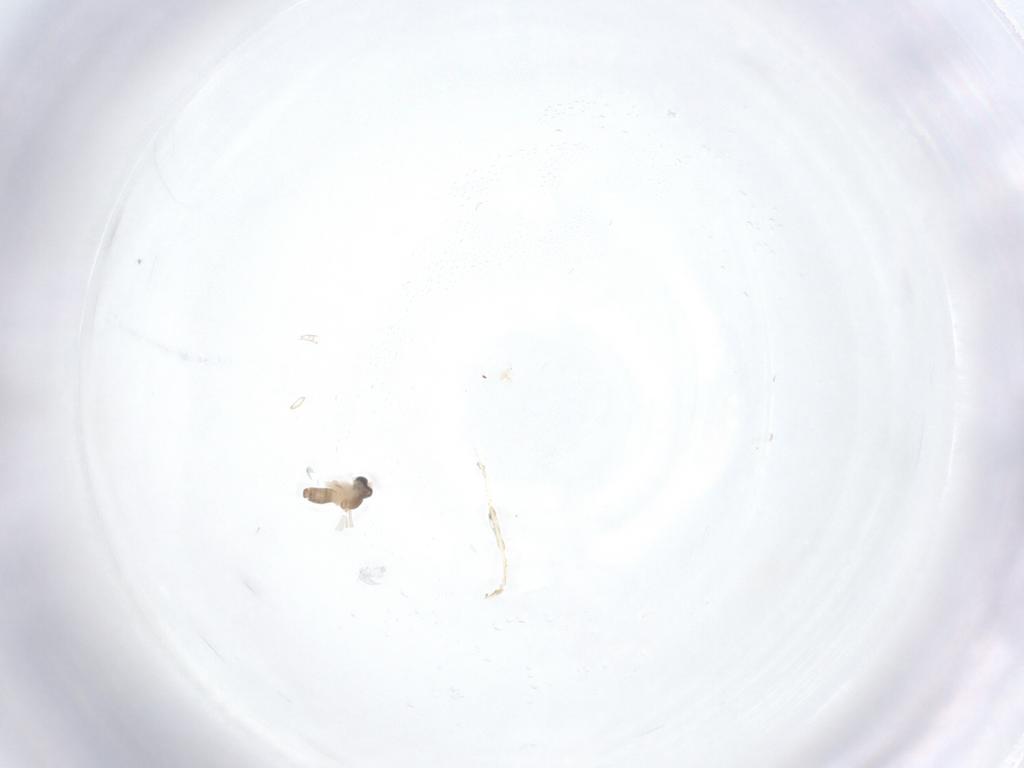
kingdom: Animalia
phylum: Arthropoda
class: Insecta
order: Diptera
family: Cecidomyiidae
